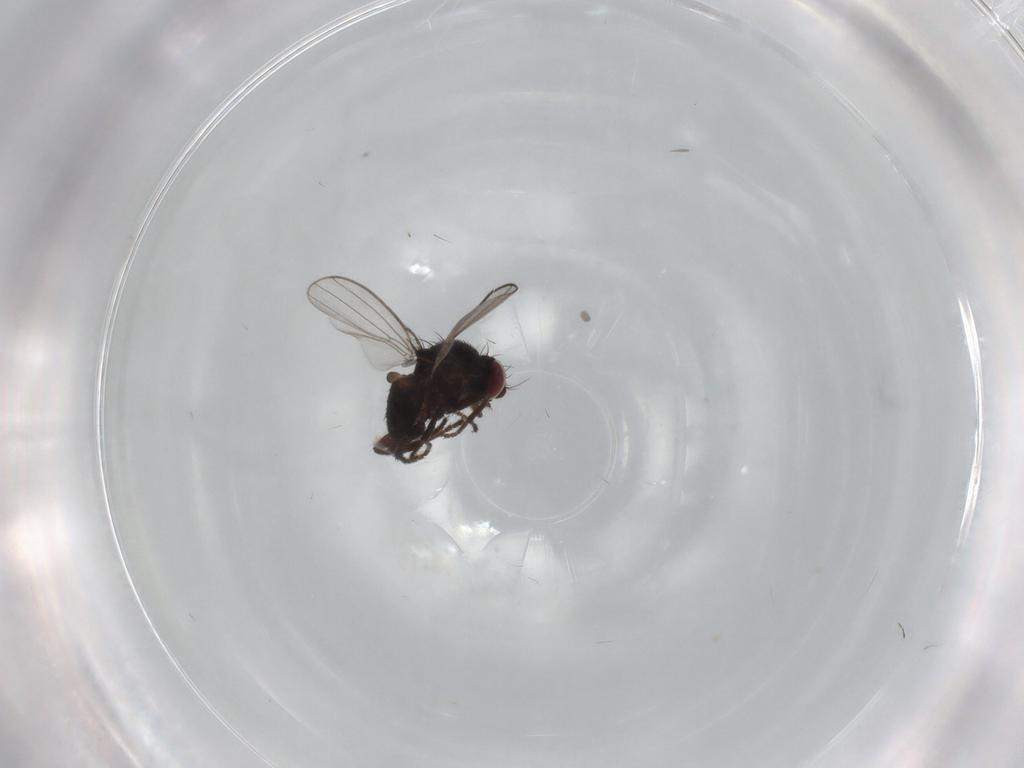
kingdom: Animalia
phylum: Arthropoda
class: Insecta
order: Diptera
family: Milichiidae
